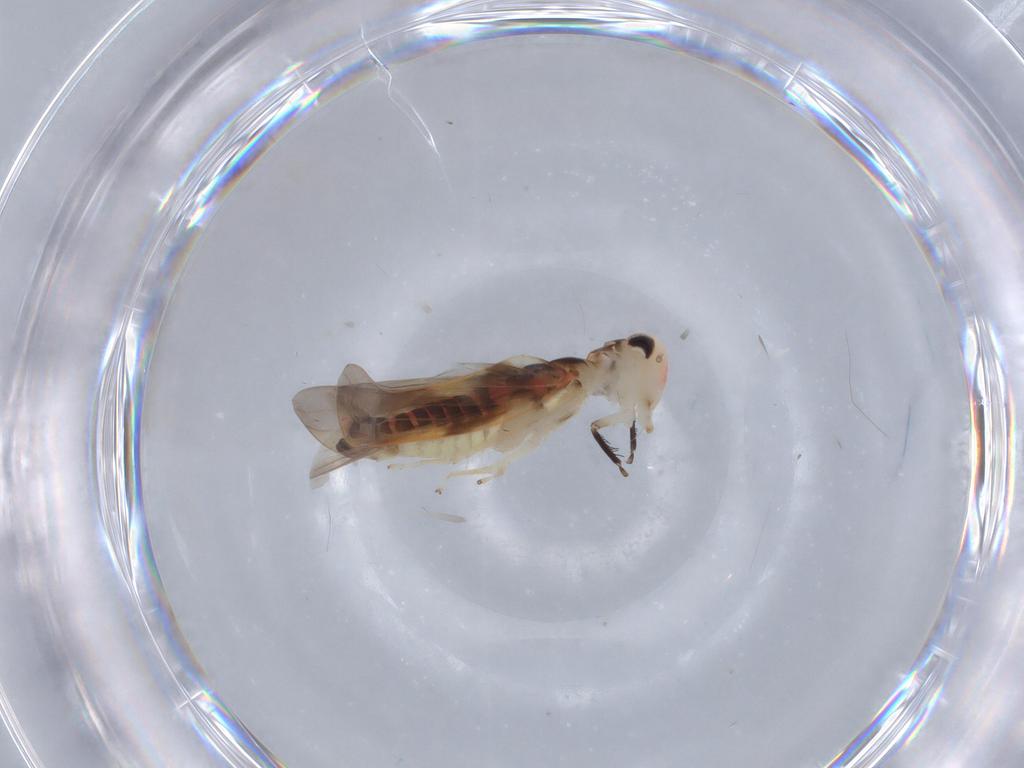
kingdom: Animalia
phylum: Arthropoda
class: Insecta
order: Hemiptera
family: Cicadellidae
